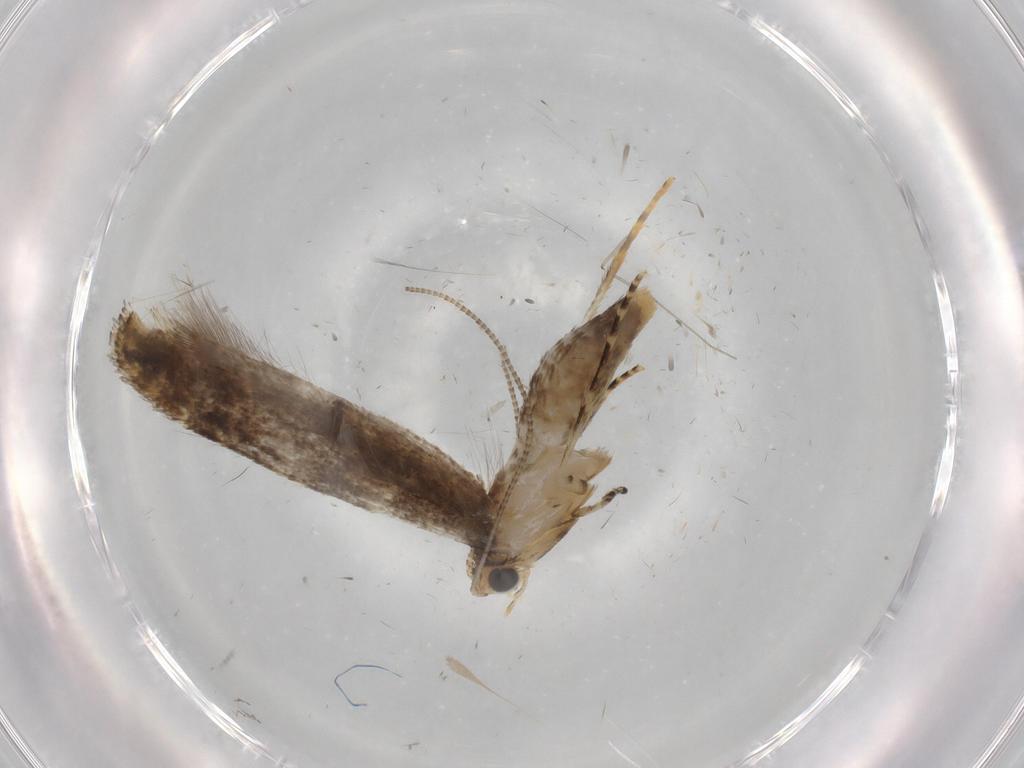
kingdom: Animalia
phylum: Arthropoda
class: Insecta
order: Lepidoptera
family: Tineidae
